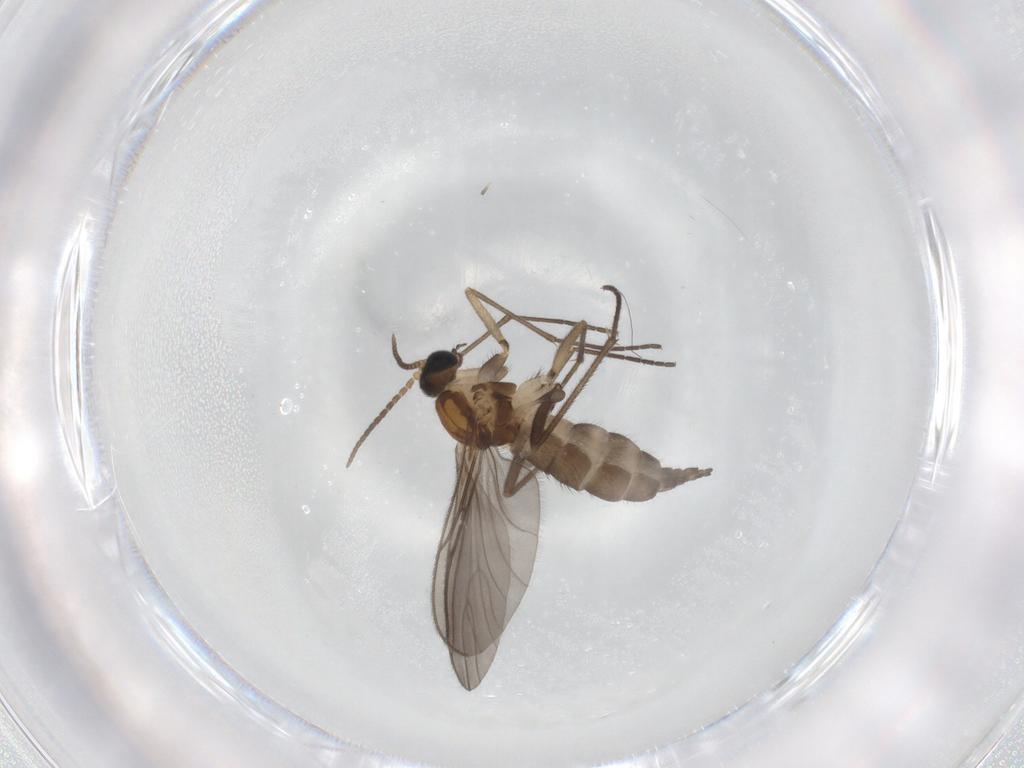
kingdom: Animalia
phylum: Arthropoda
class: Insecta
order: Diptera
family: Sciaridae
